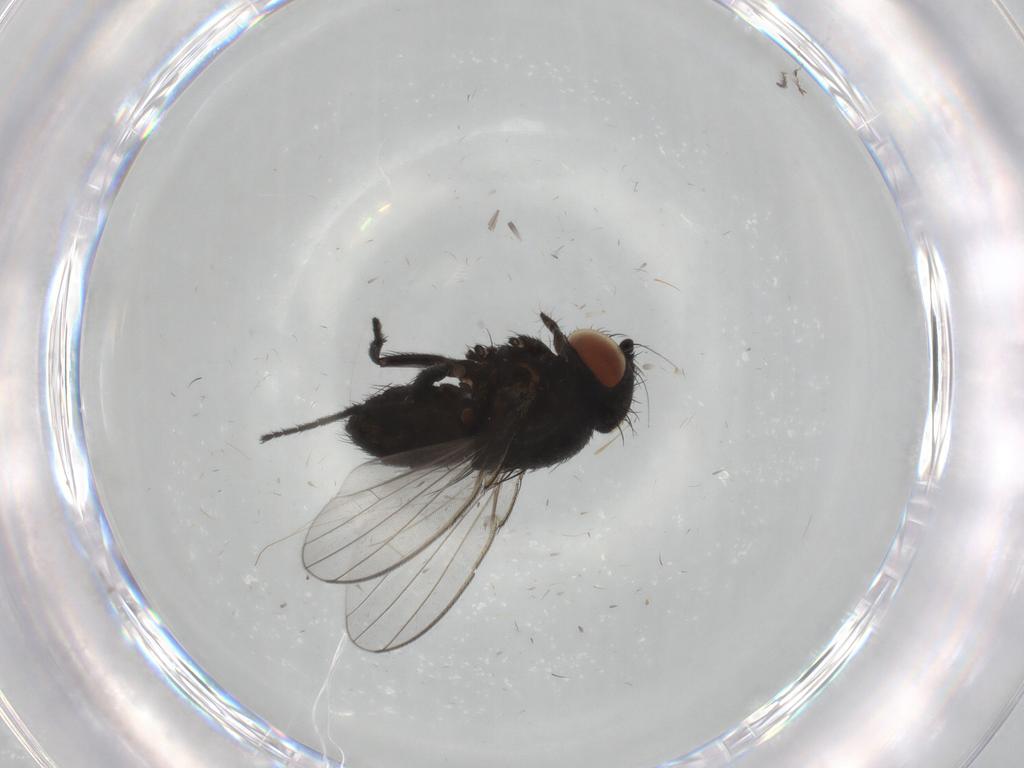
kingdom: Animalia
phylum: Arthropoda
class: Insecta
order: Diptera
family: Milichiidae
